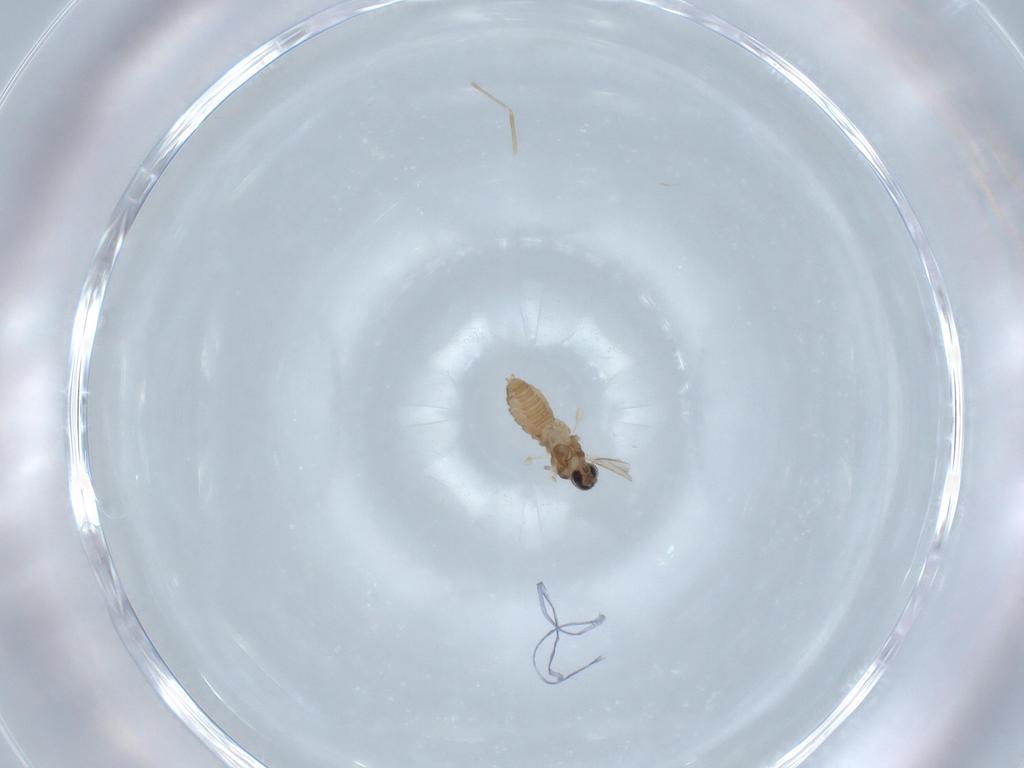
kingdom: Animalia
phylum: Arthropoda
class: Insecta
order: Diptera
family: Cecidomyiidae
